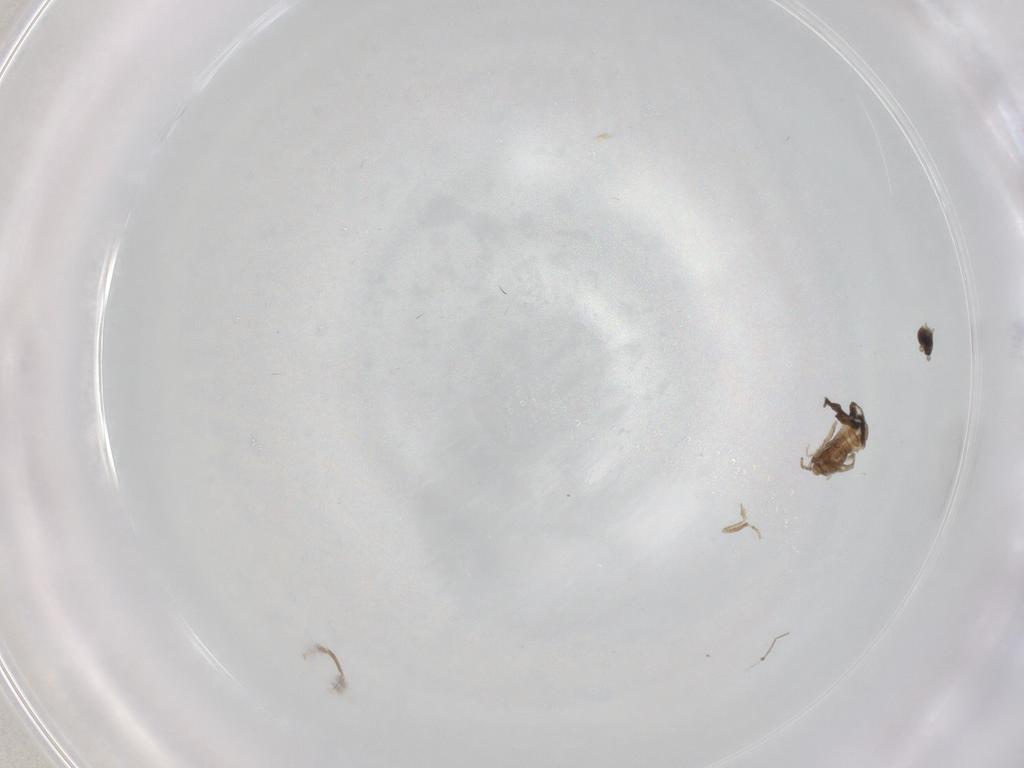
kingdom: Animalia
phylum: Arthropoda
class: Insecta
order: Diptera
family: Cecidomyiidae
